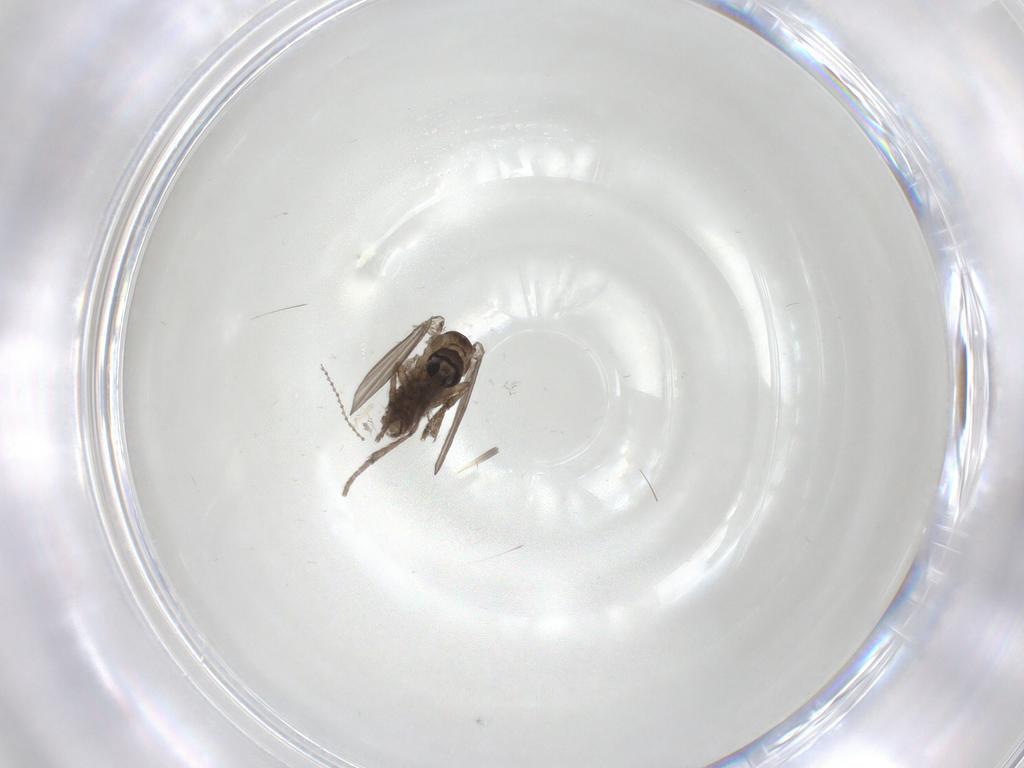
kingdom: Animalia
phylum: Arthropoda
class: Insecta
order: Diptera
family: Psychodidae
